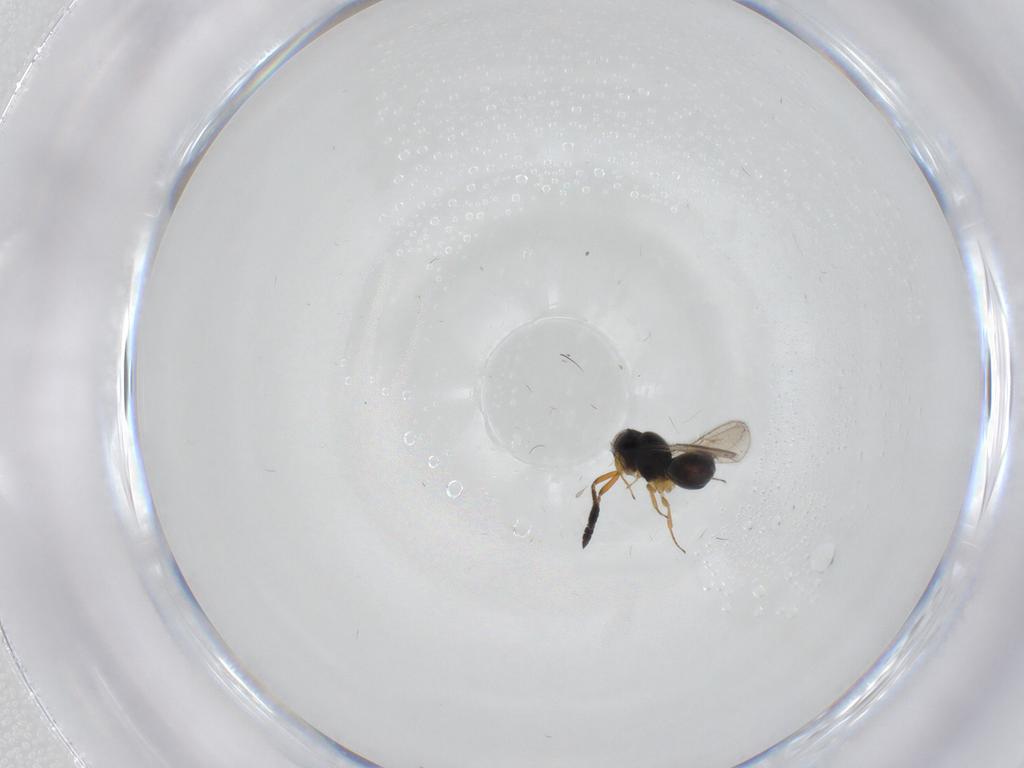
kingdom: Animalia
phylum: Arthropoda
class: Insecta
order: Hymenoptera
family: Scelionidae
